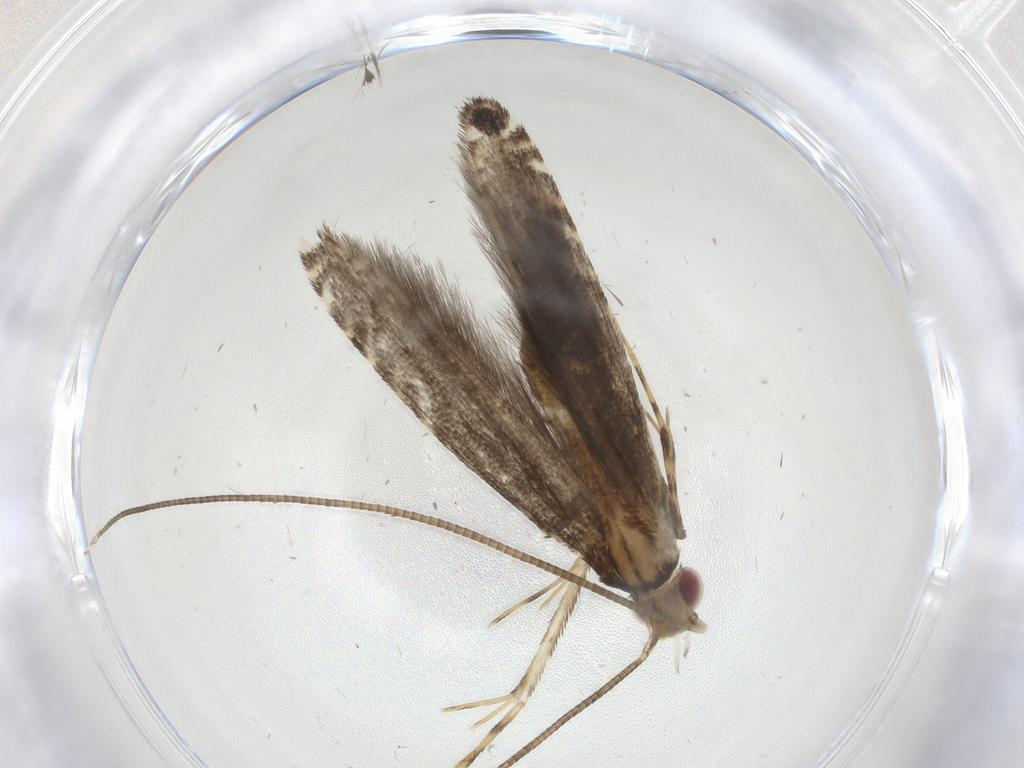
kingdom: Animalia
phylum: Arthropoda
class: Insecta
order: Lepidoptera
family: Gracillariidae
